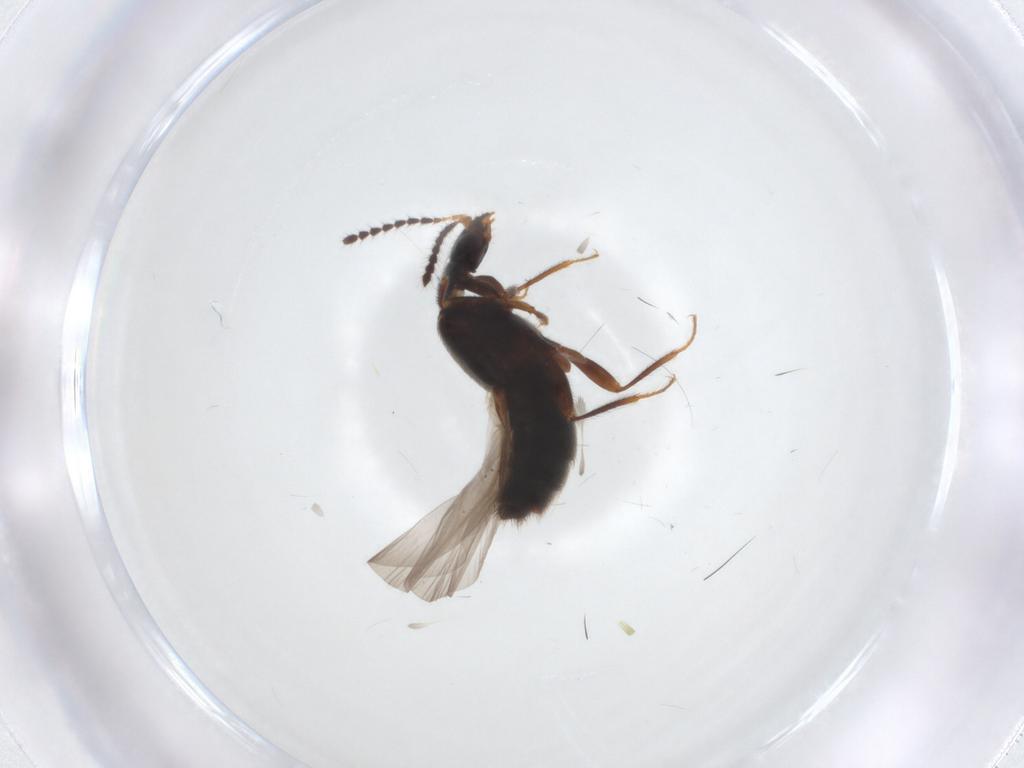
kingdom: Animalia
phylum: Arthropoda
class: Insecta
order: Coleoptera
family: Staphylinidae
